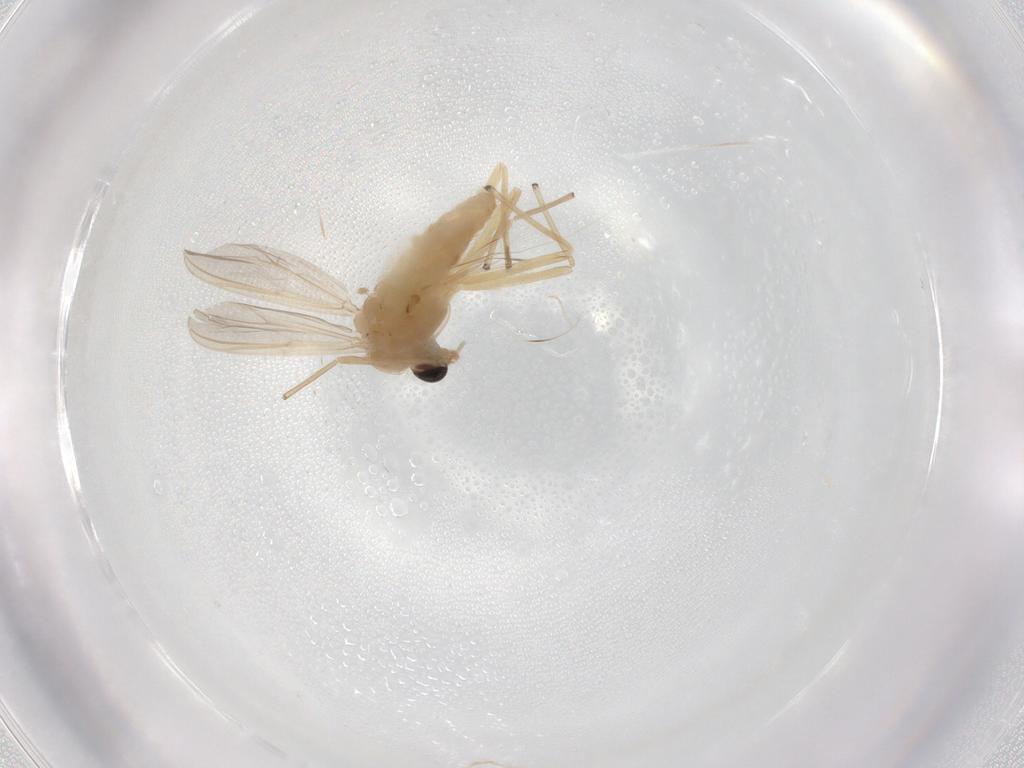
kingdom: Animalia
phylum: Arthropoda
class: Insecta
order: Diptera
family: Chironomidae
